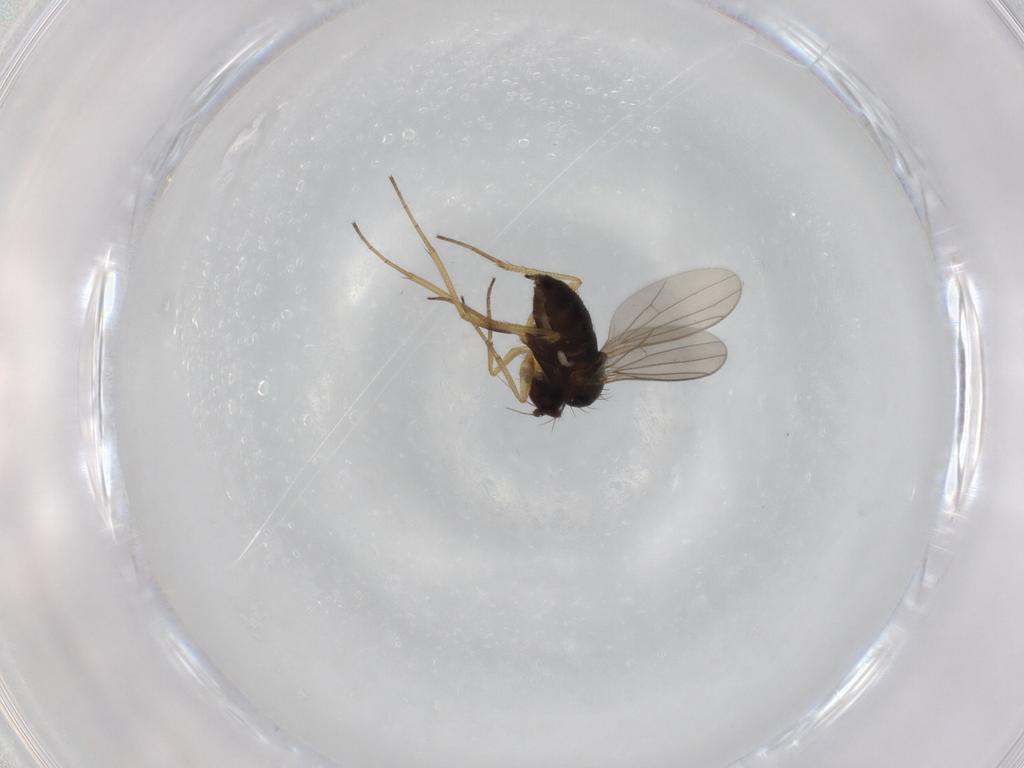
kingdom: Animalia
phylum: Arthropoda
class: Insecta
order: Diptera
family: Dolichopodidae
